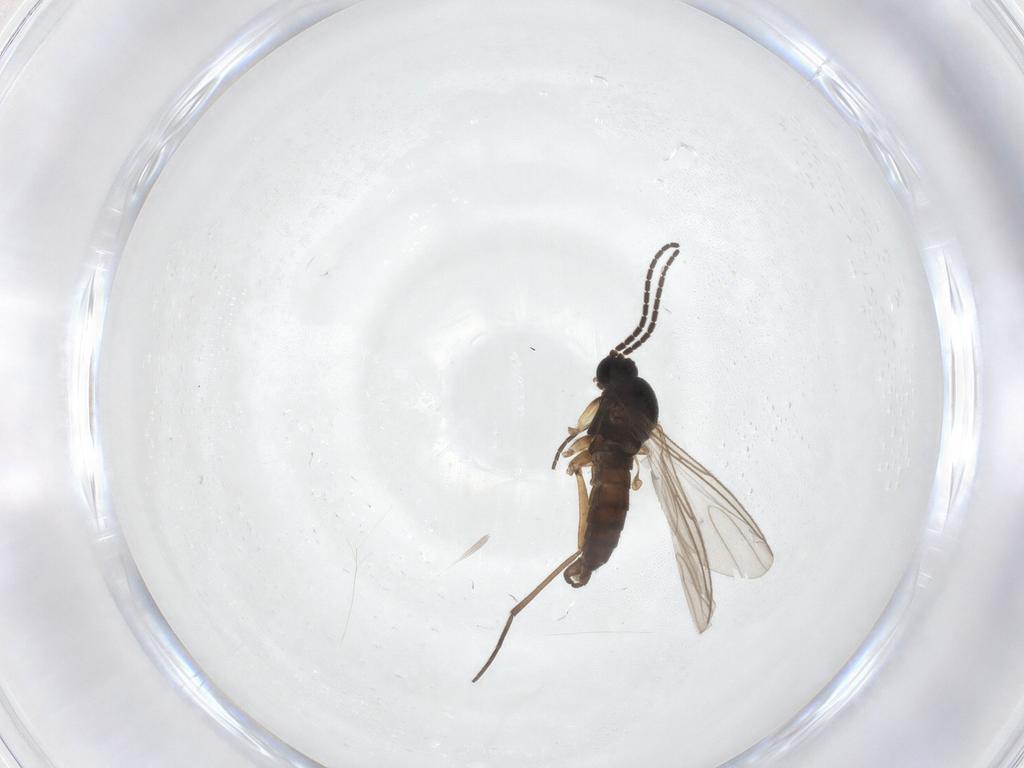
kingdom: Animalia
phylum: Arthropoda
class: Insecta
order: Diptera
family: Sciaridae
